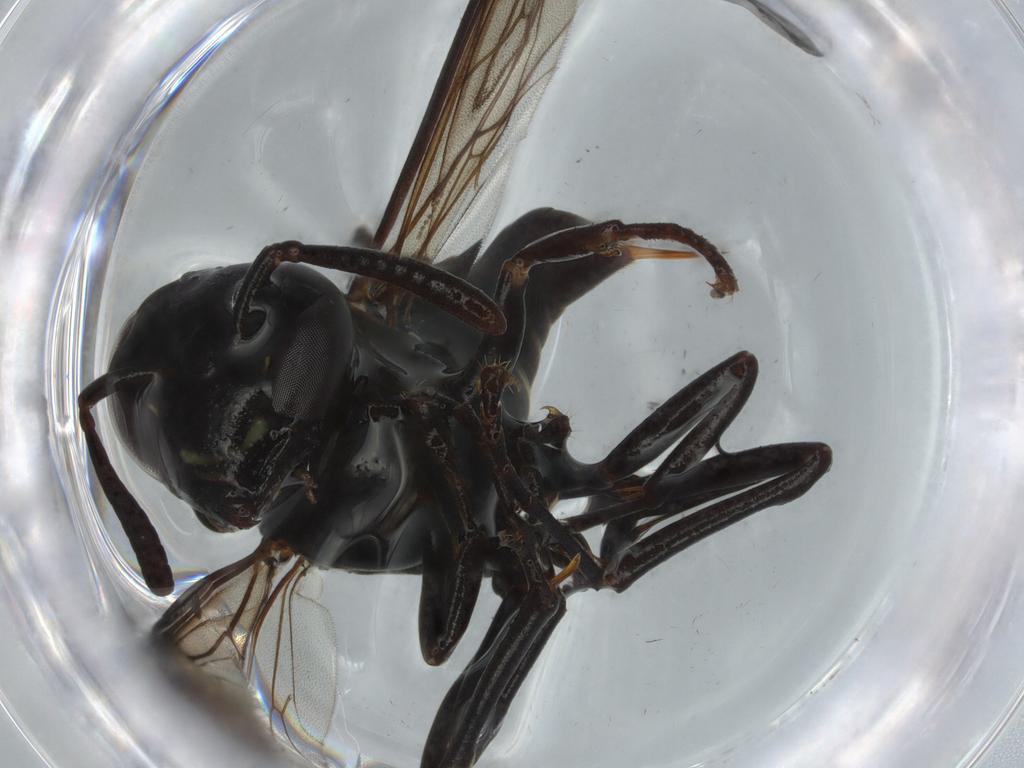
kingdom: Animalia
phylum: Arthropoda
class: Insecta
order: Hymenoptera
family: Vespidae
